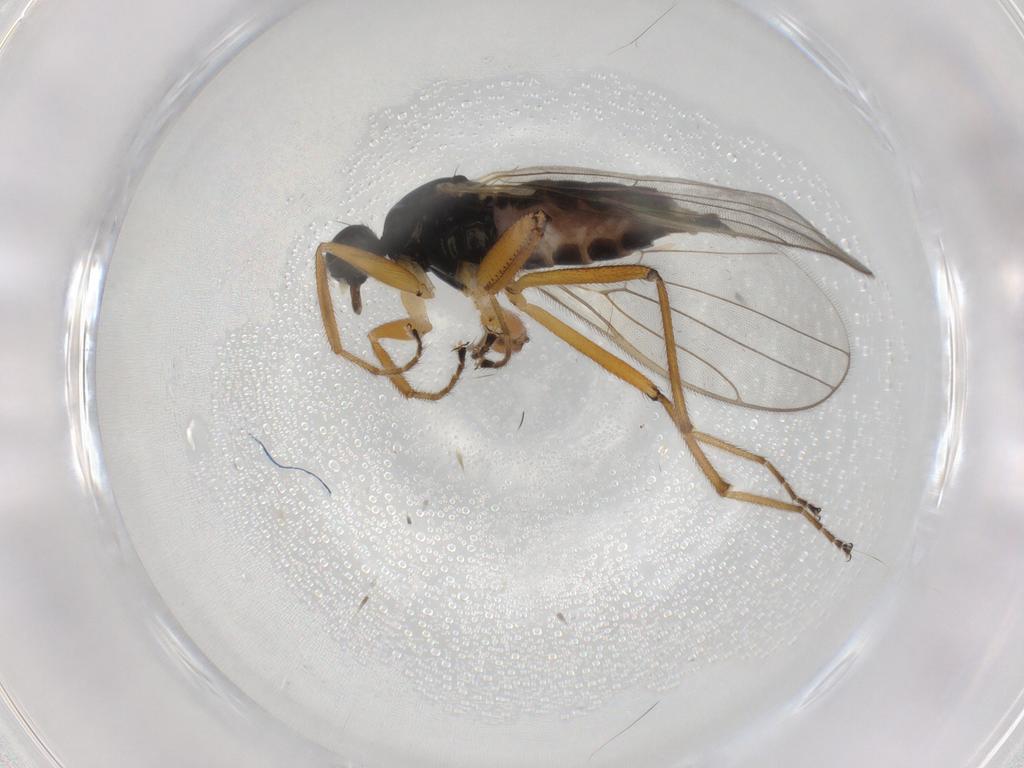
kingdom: Animalia
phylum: Arthropoda
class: Insecta
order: Diptera
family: Hybotidae
